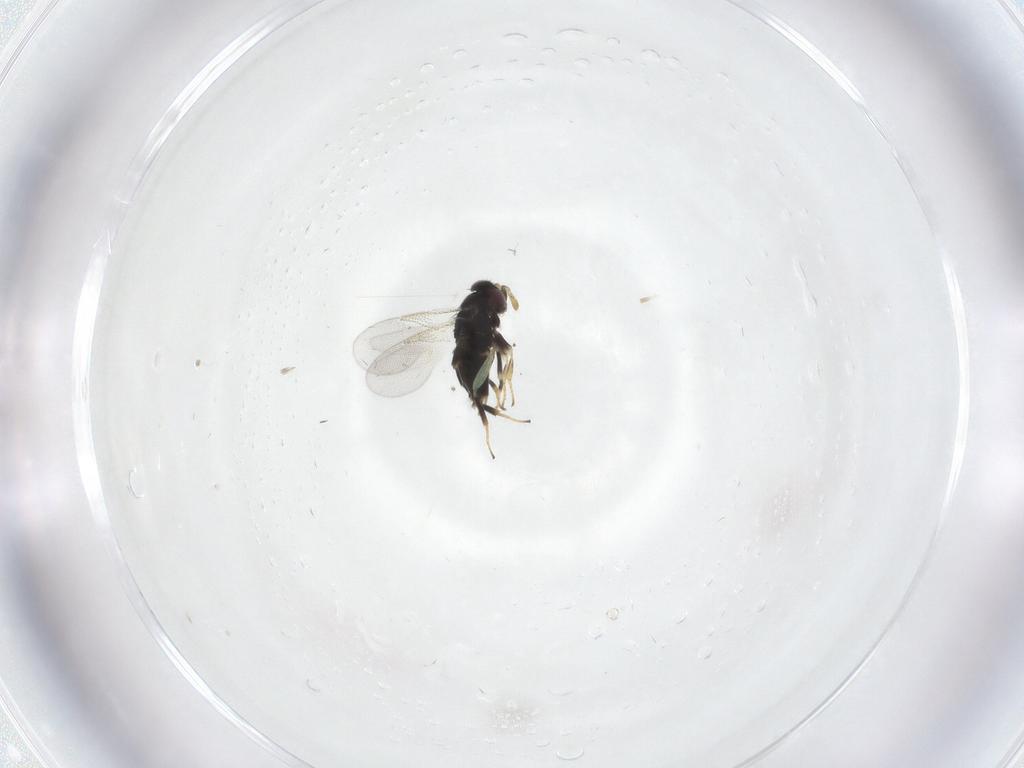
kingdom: Animalia
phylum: Arthropoda
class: Insecta
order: Hymenoptera
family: Aphelinidae
